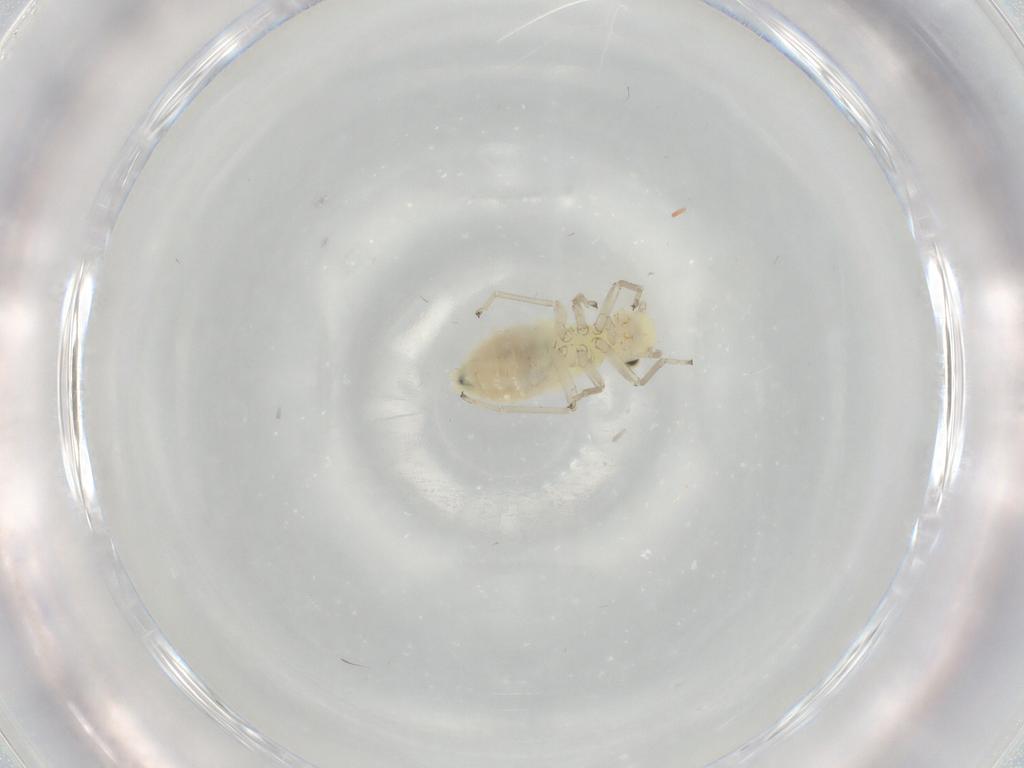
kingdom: Animalia
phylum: Arthropoda
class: Insecta
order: Psocodea
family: Caeciliusidae
